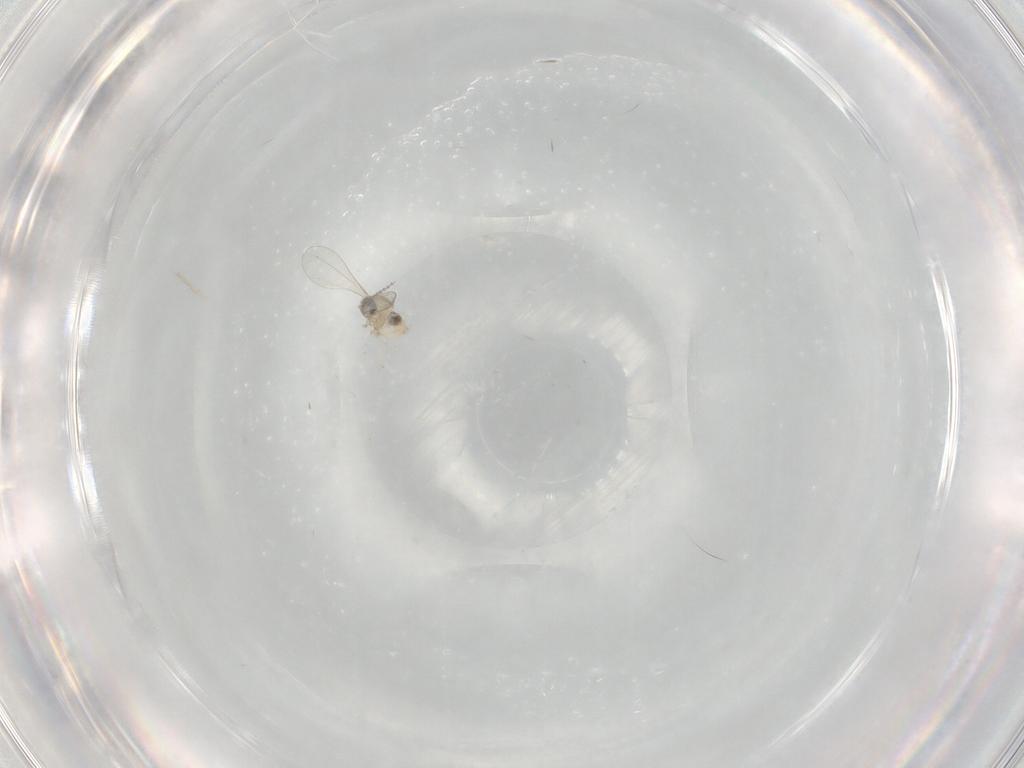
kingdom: Animalia
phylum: Arthropoda
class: Insecta
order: Diptera
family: Cecidomyiidae
